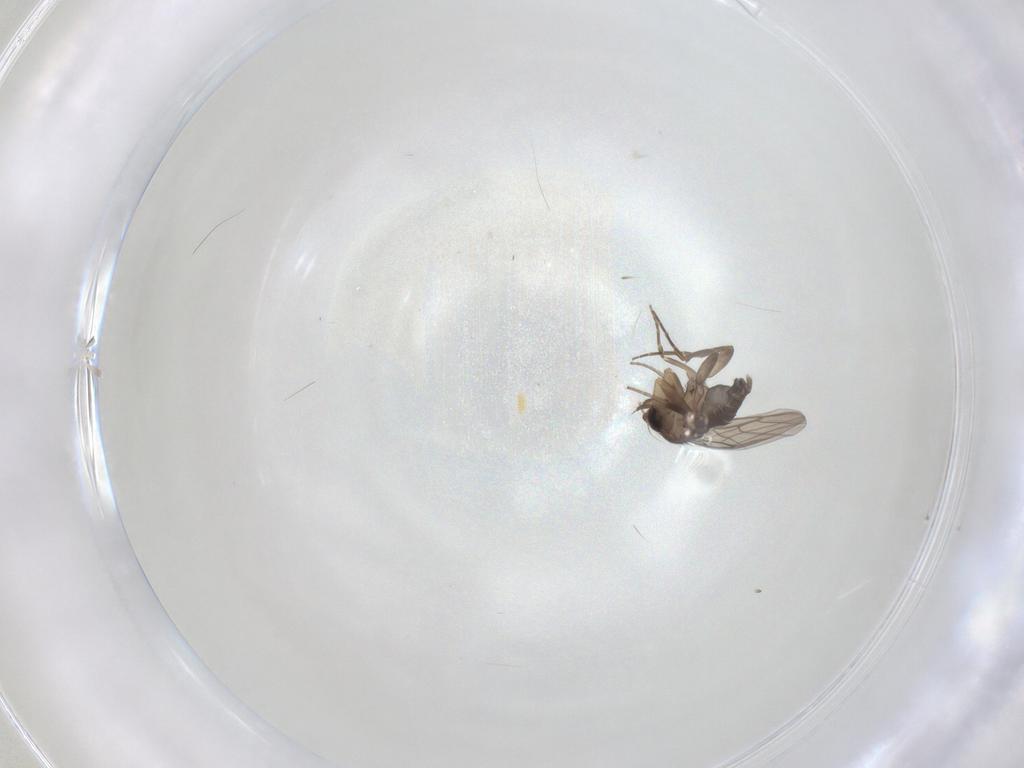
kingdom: Animalia
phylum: Arthropoda
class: Insecta
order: Diptera
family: Phoridae
